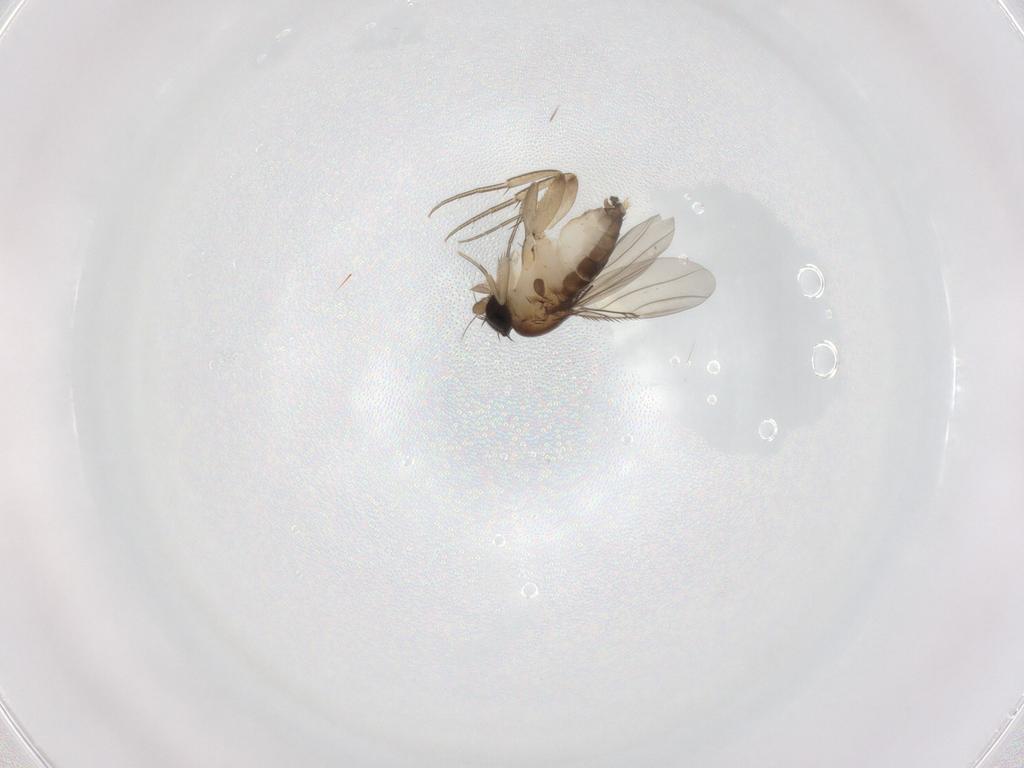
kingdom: Animalia
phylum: Arthropoda
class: Insecta
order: Diptera
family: Phoridae
